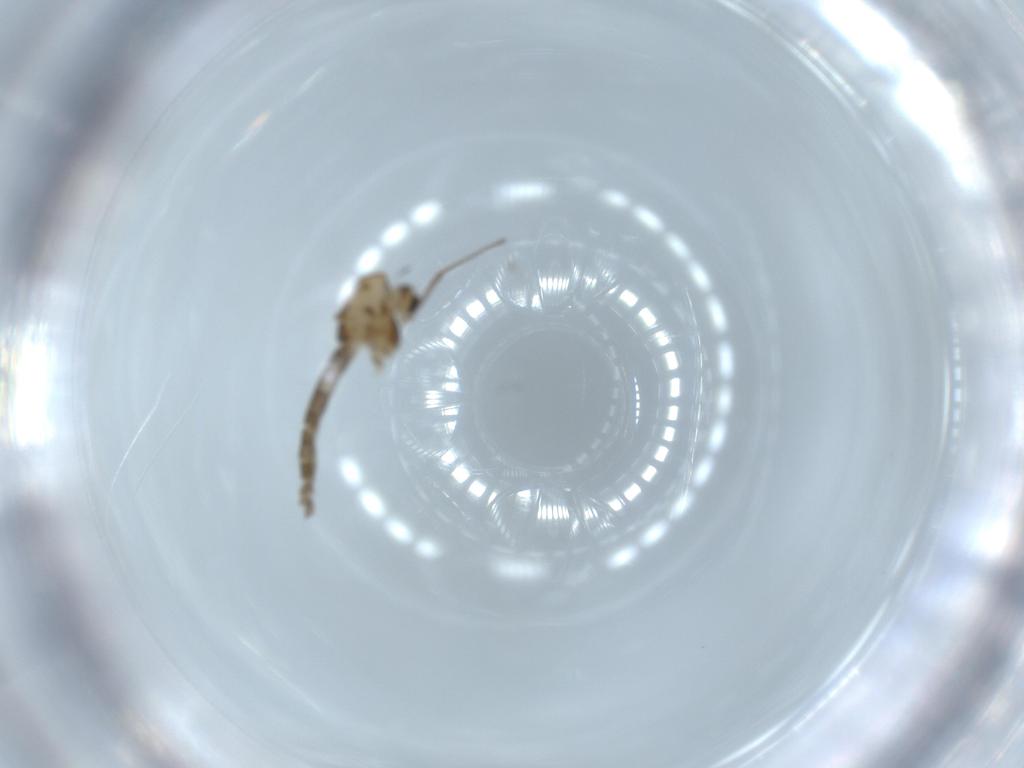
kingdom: Animalia
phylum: Arthropoda
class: Insecta
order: Diptera
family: Chironomidae
